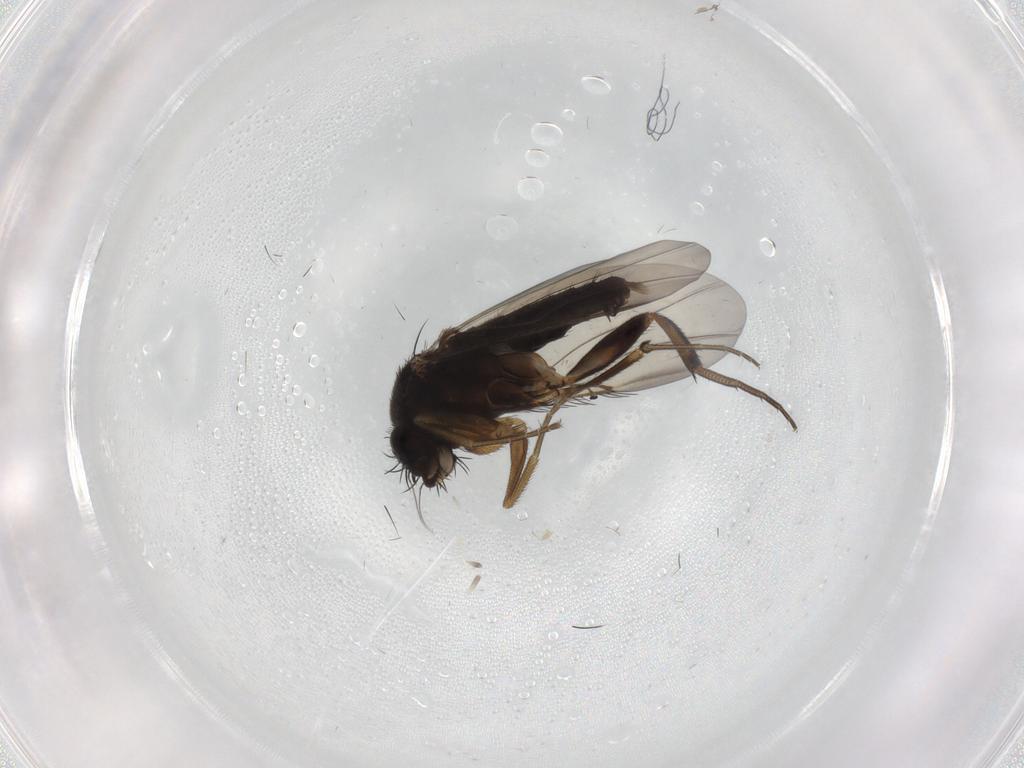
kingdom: Animalia
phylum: Arthropoda
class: Insecta
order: Diptera
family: Phoridae
